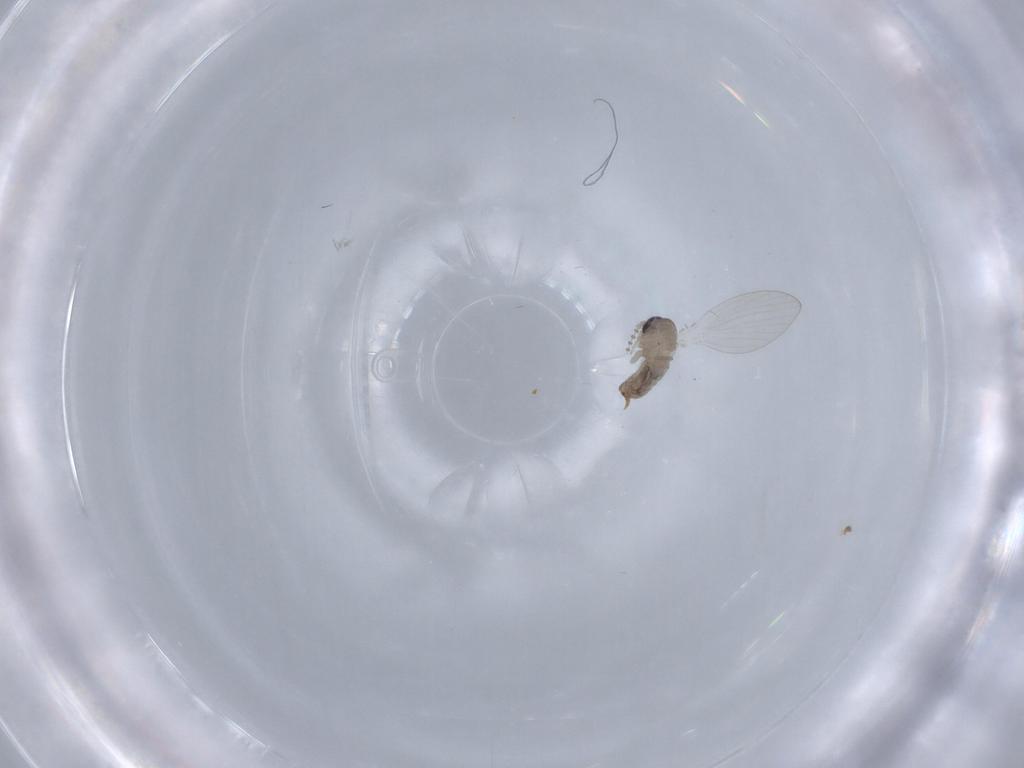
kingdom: Animalia
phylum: Arthropoda
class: Insecta
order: Diptera
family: Psychodidae
